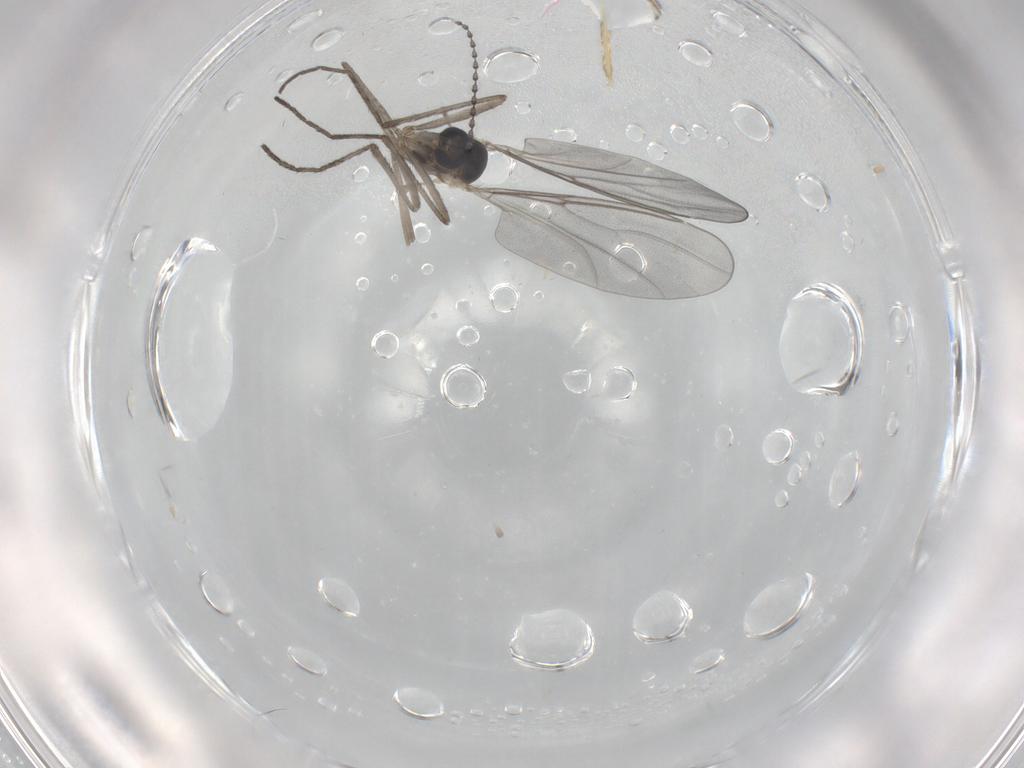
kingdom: Animalia
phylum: Arthropoda
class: Insecta
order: Diptera
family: Cecidomyiidae
